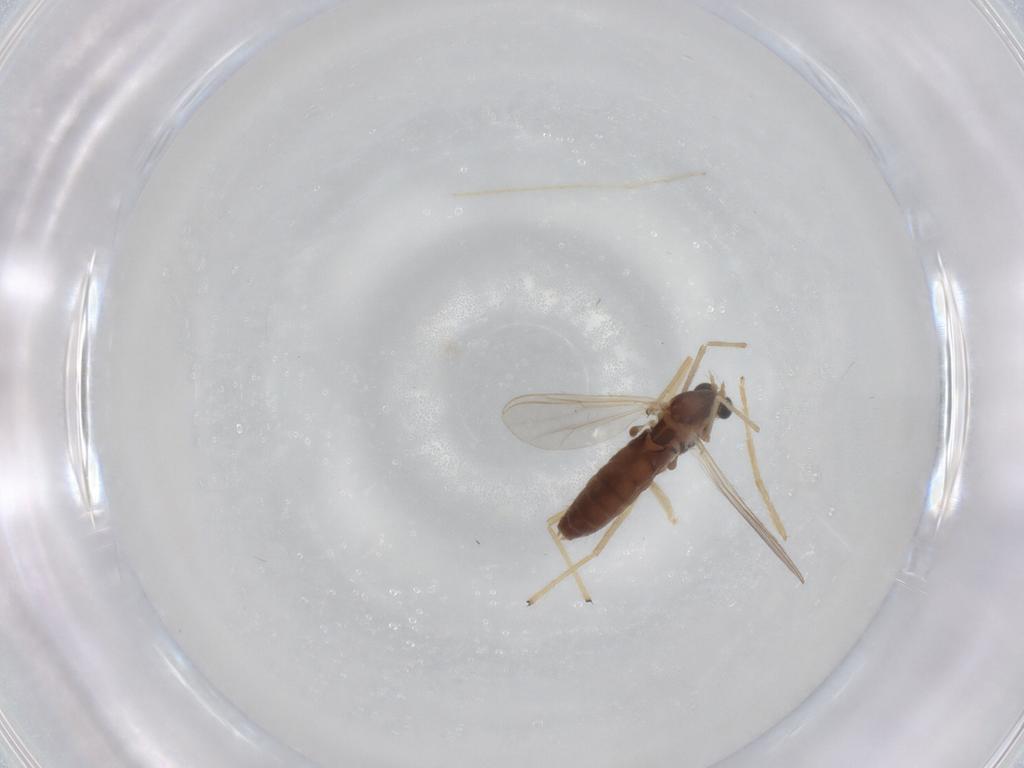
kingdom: Animalia
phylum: Arthropoda
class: Insecta
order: Diptera
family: Chironomidae
